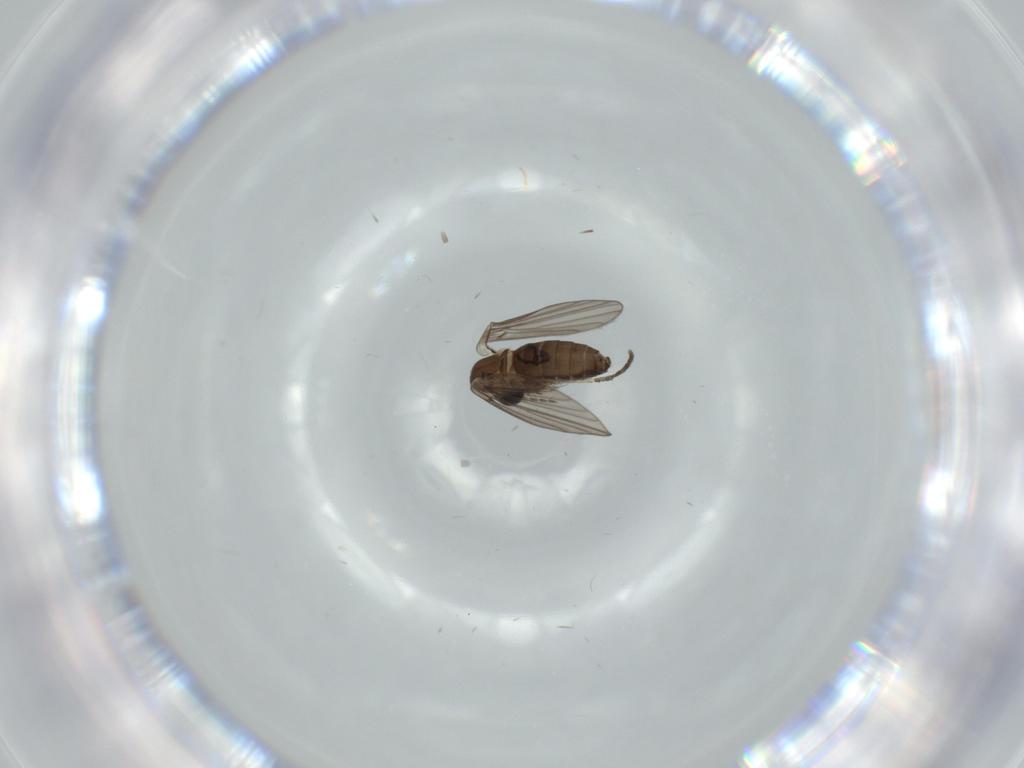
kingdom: Animalia
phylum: Arthropoda
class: Insecta
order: Diptera
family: Psychodidae
